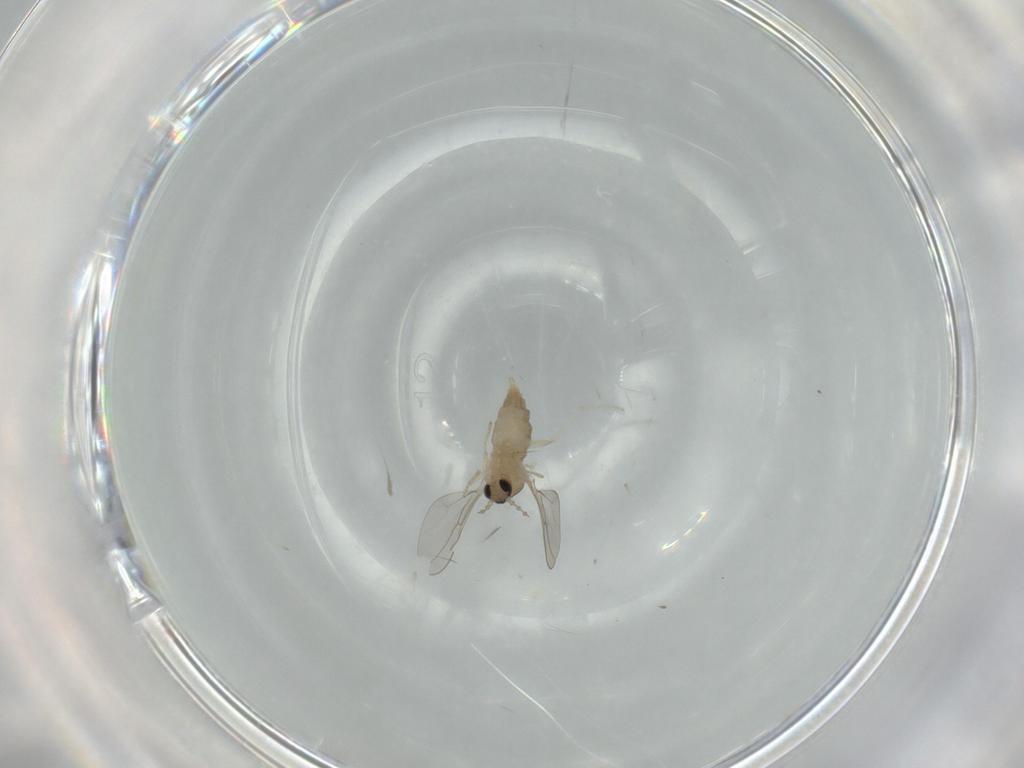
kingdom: Animalia
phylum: Arthropoda
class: Insecta
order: Diptera
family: Cecidomyiidae
